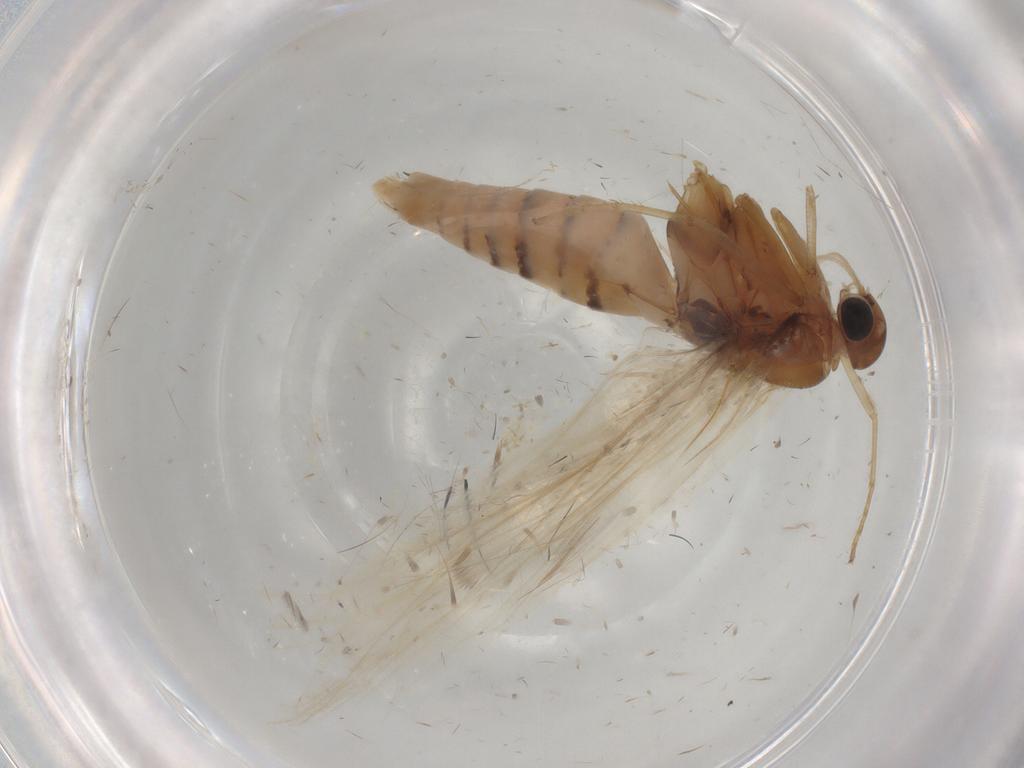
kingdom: Animalia
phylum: Arthropoda
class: Insecta
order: Lepidoptera
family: Gelechiidae
